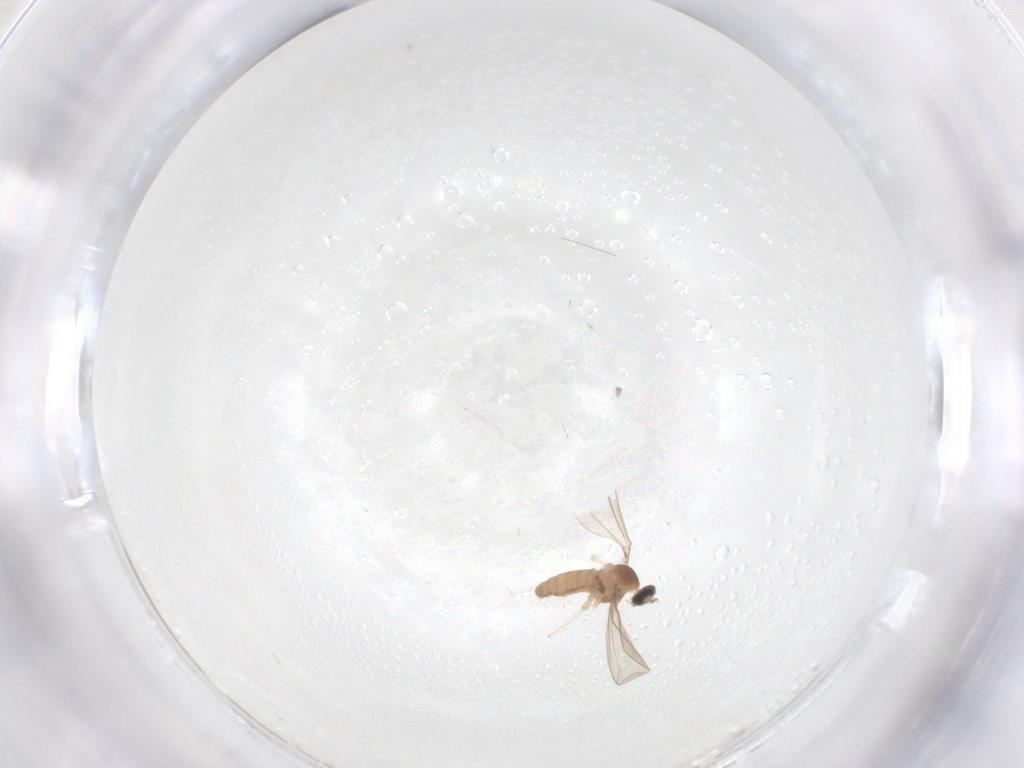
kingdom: Animalia
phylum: Arthropoda
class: Insecta
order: Diptera
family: Cecidomyiidae
